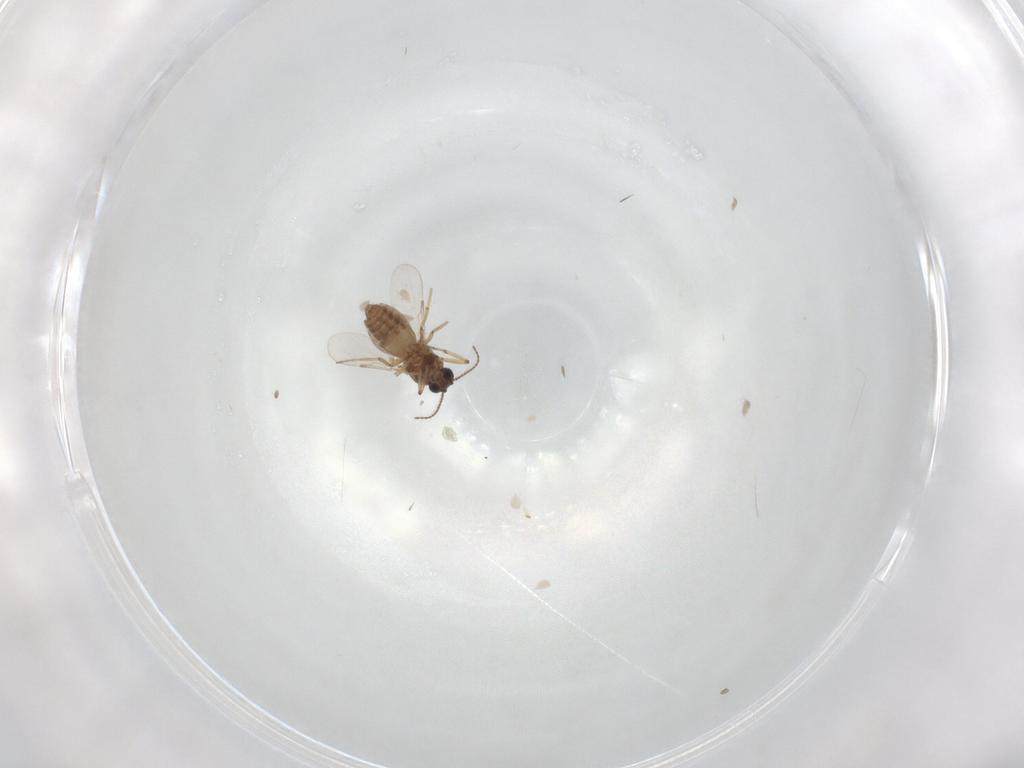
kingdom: Animalia
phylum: Arthropoda
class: Insecta
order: Diptera
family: Ceratopogonidae
